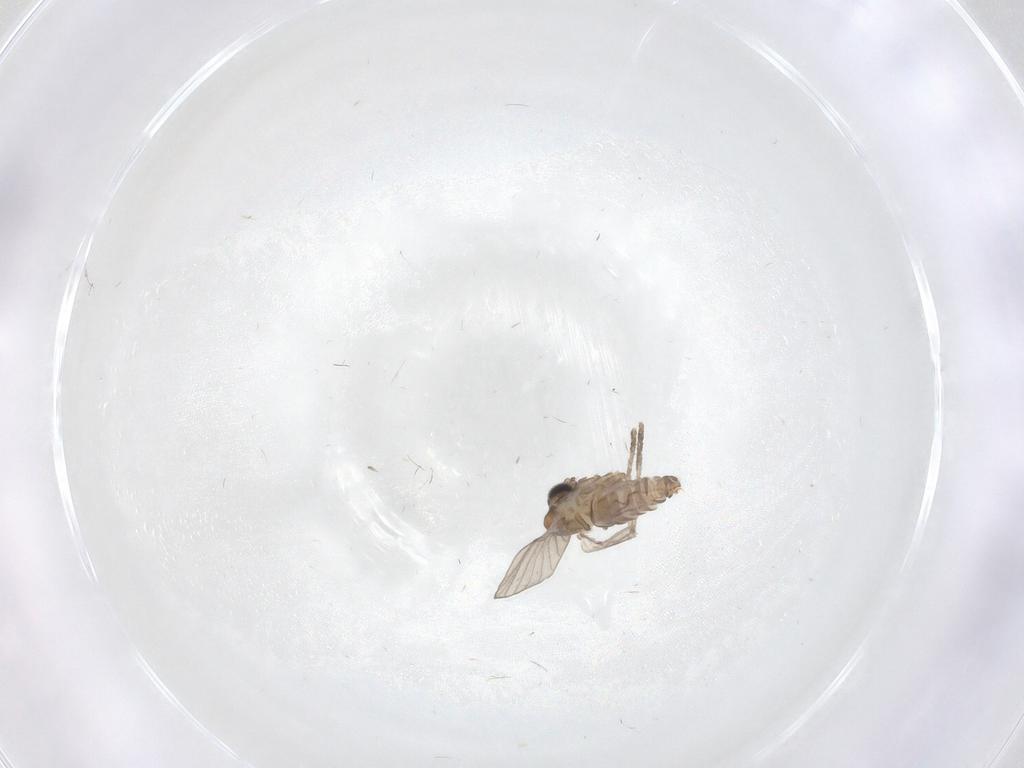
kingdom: Animalia
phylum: Arthropoda
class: Insecta
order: Diptera
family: Psychodidae
